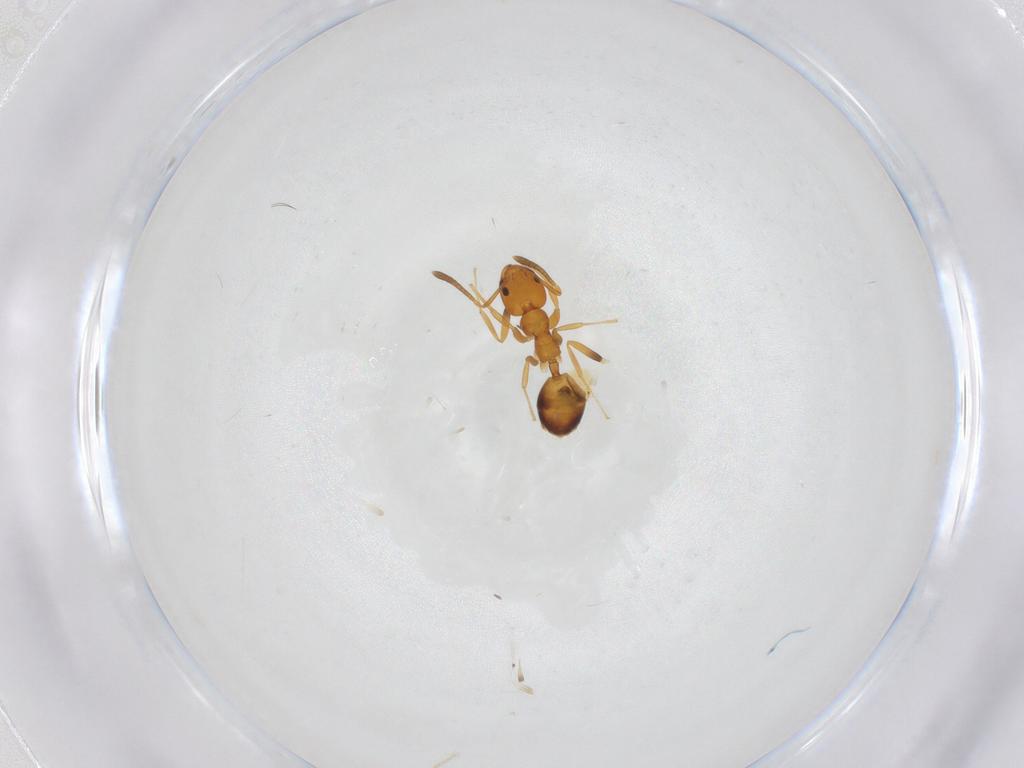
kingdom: Animalia
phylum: Arthropoda
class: Insecta
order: Hymenoptera
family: Formicidae
